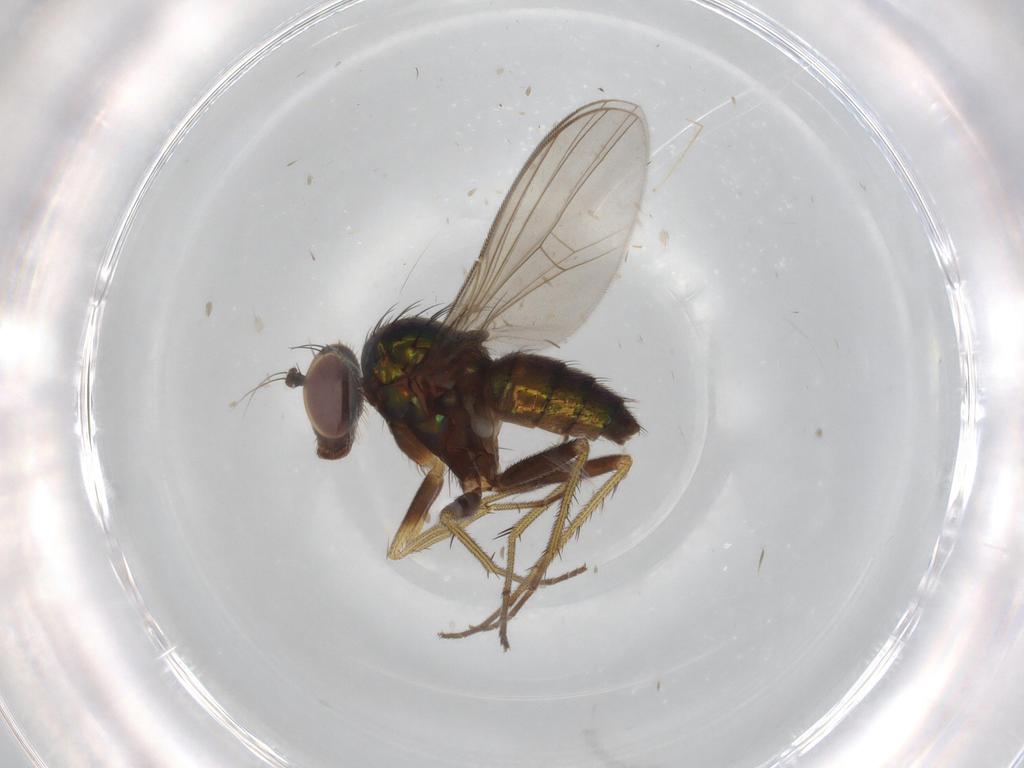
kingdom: Animalia
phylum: Arthropoda
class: Insecta
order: Diptera
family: Dolichopodidae
